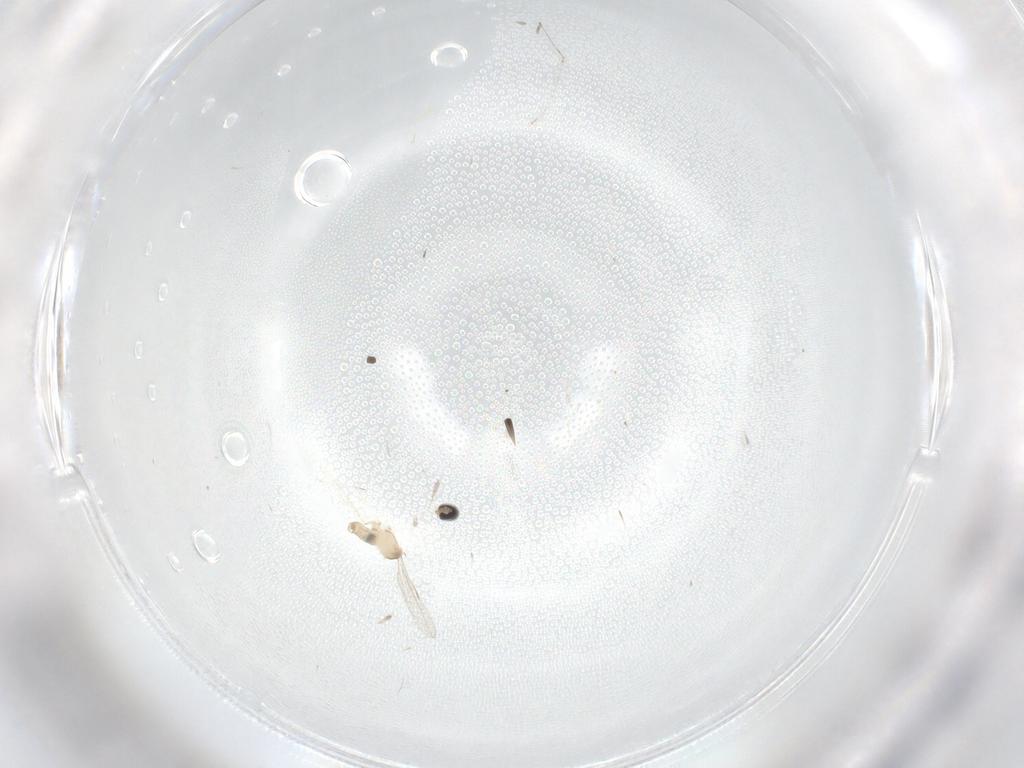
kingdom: Animalia
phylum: Arthropoda
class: Insecta
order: Diptera
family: Cecidomyiidae
